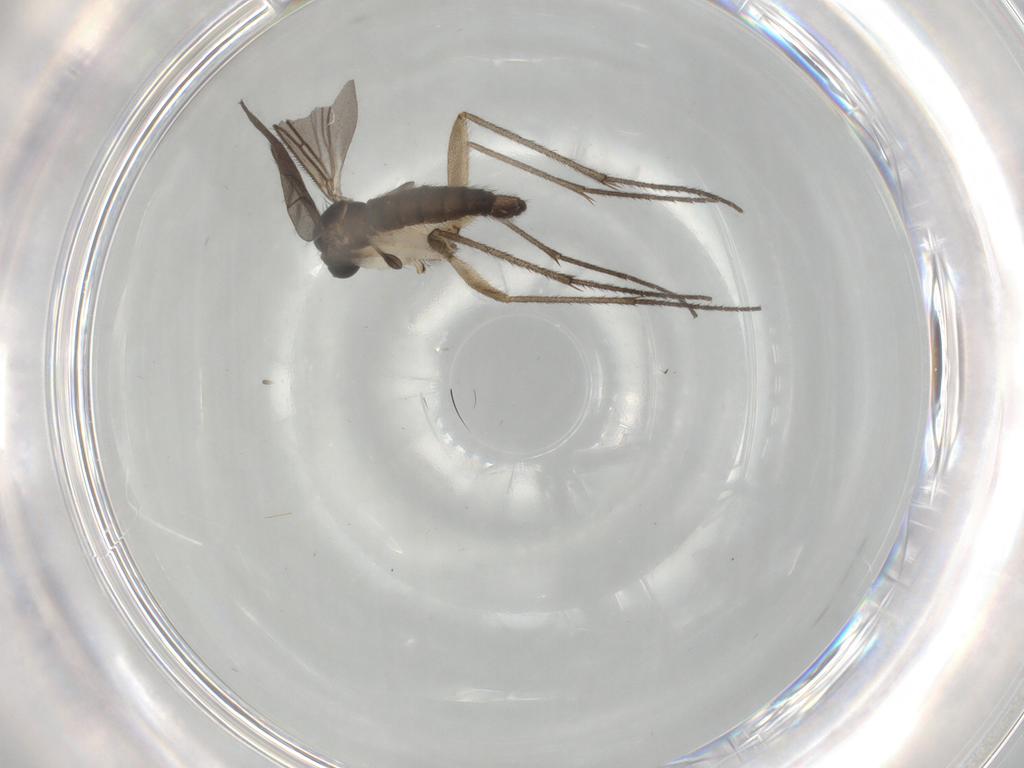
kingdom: Animalia
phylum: Arthropoda
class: Insecta
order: Diptera
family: Sciaridae
